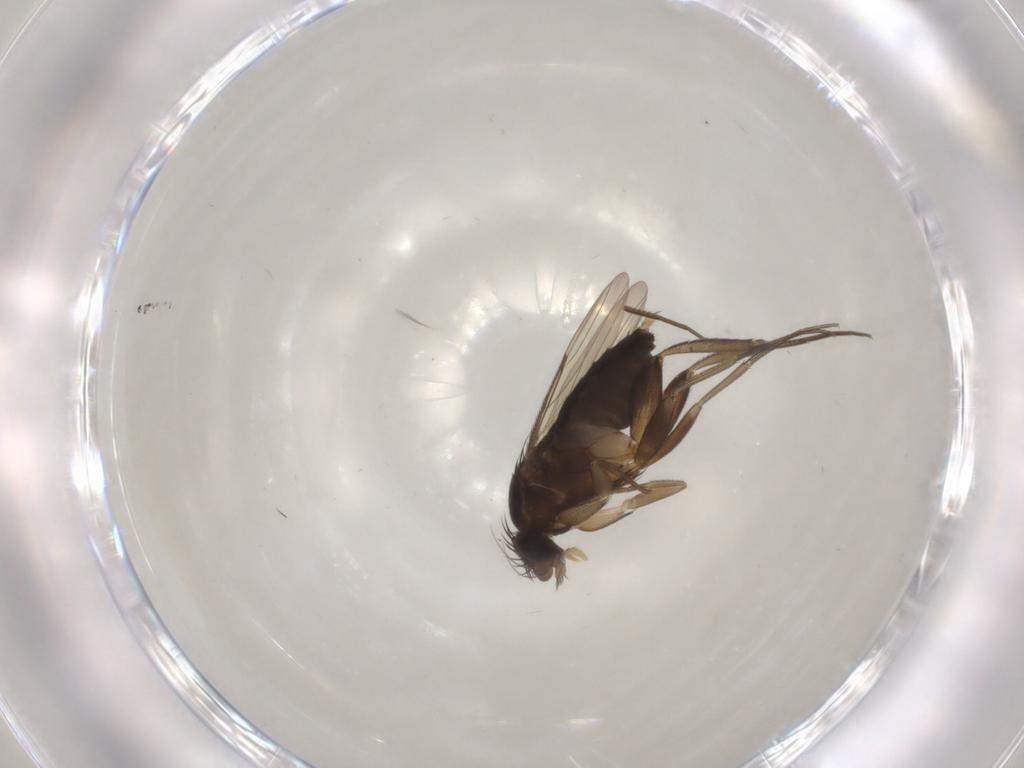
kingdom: Animalia
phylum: Arthropoda
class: Insecta
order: Diptera
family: Phoridae
